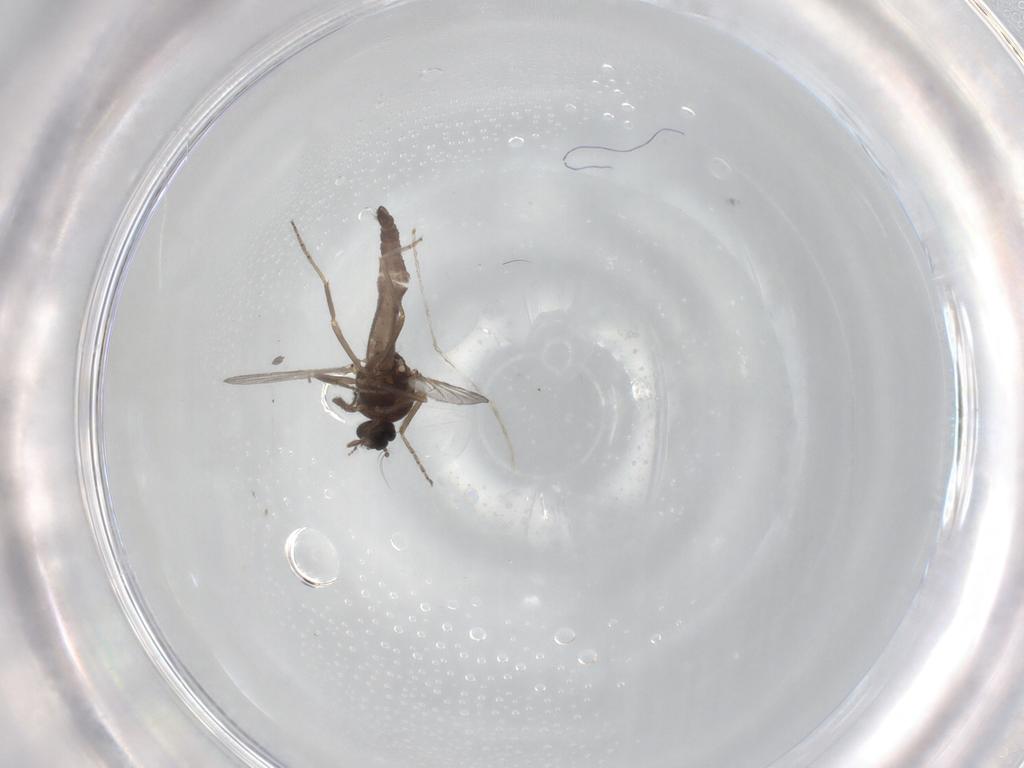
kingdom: Animalia
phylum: Arthropoda
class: Insecta
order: Diptera
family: Ceratopogonidae
